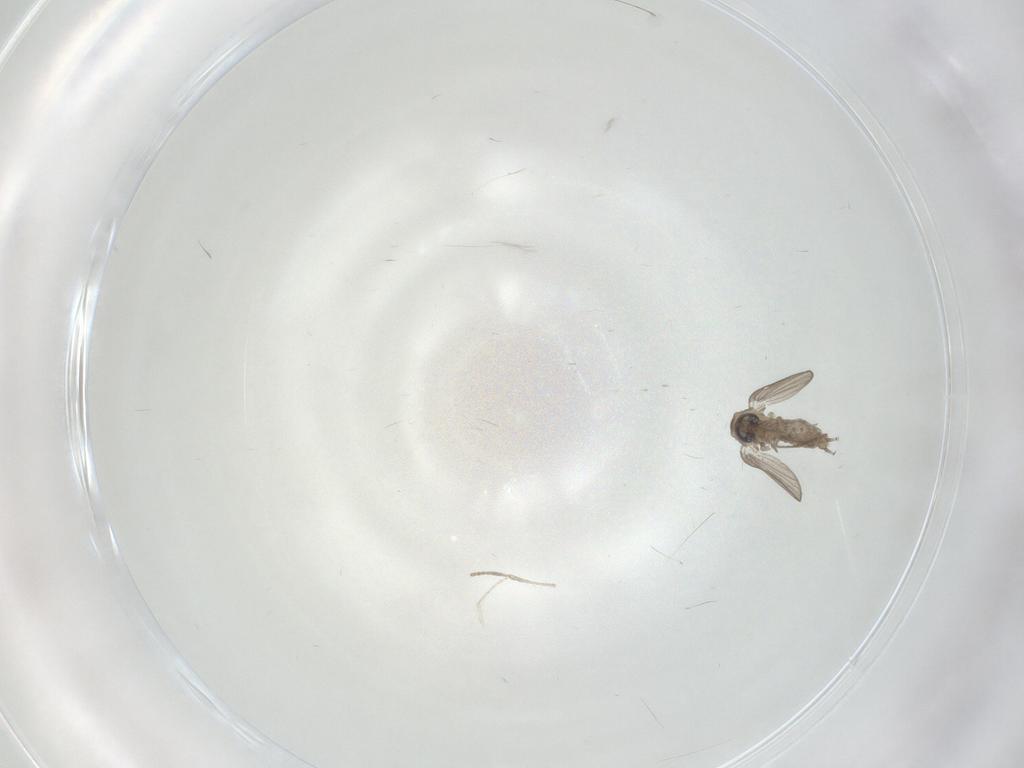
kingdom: Animalia
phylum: Arthropoda
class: Insecta
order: Diptera
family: Psychodidae
